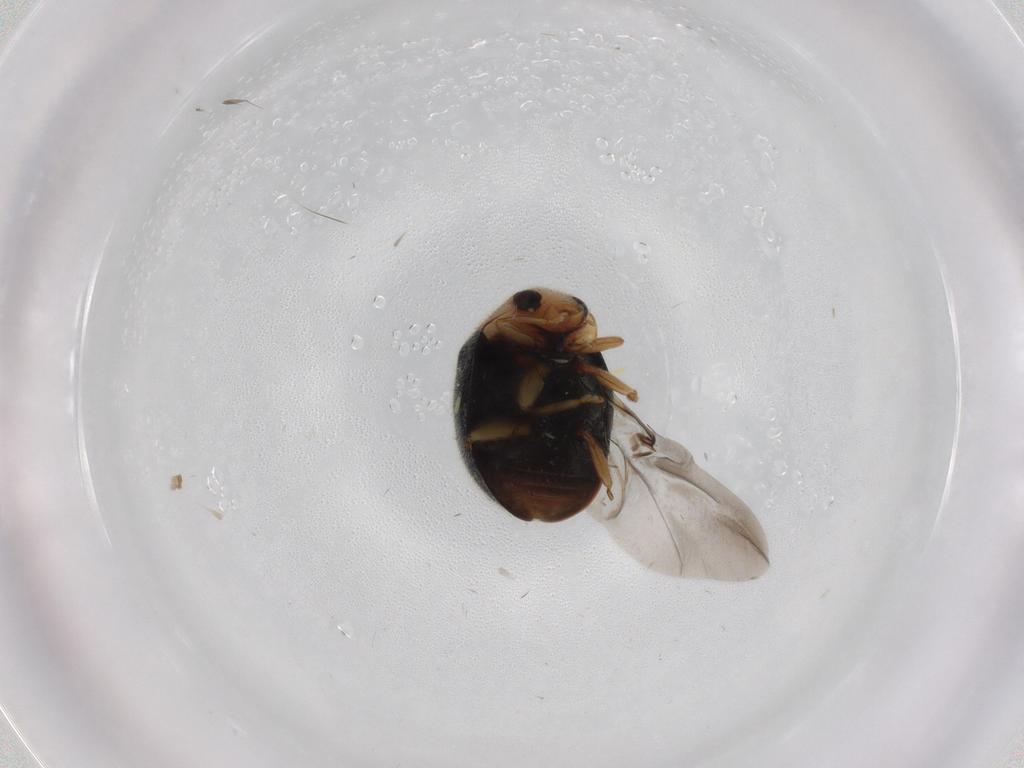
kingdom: Animalia
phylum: Arthropoda
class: Insecta
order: Coleoptera
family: Coccinellidae
